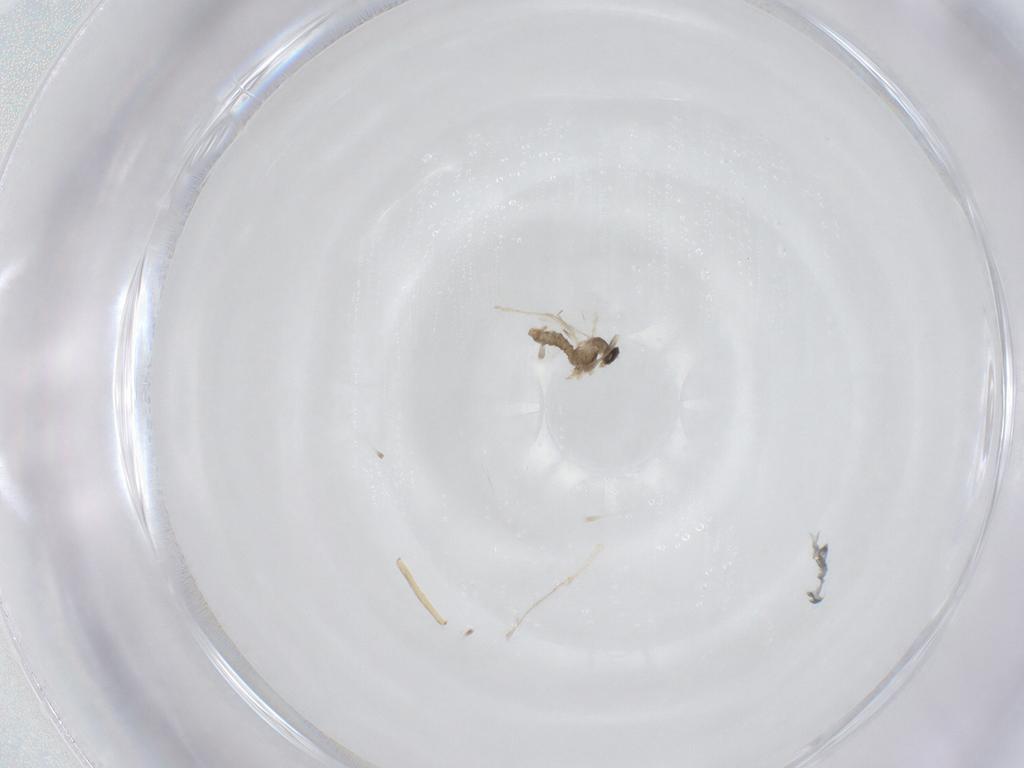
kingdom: Animalia
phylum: Arthropoda
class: Insecta
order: Diptera
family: Cecidomyiidae
